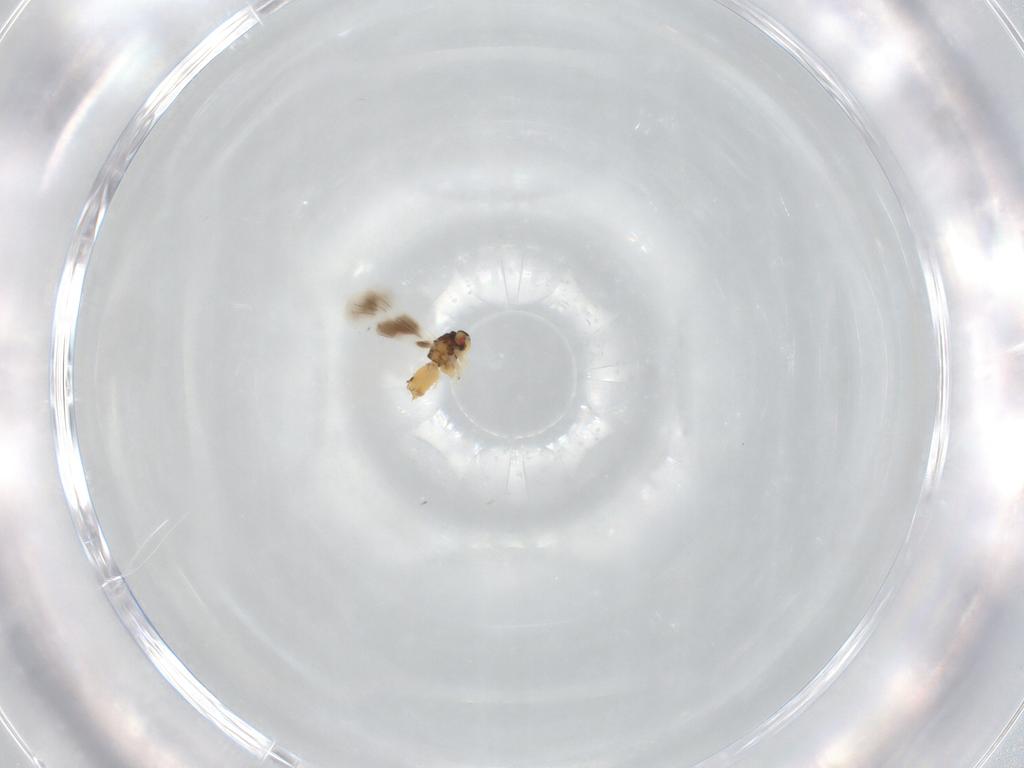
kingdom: Animalia
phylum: Arthropoda
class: Insecta
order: Hemiptera
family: Aleyrodidae
